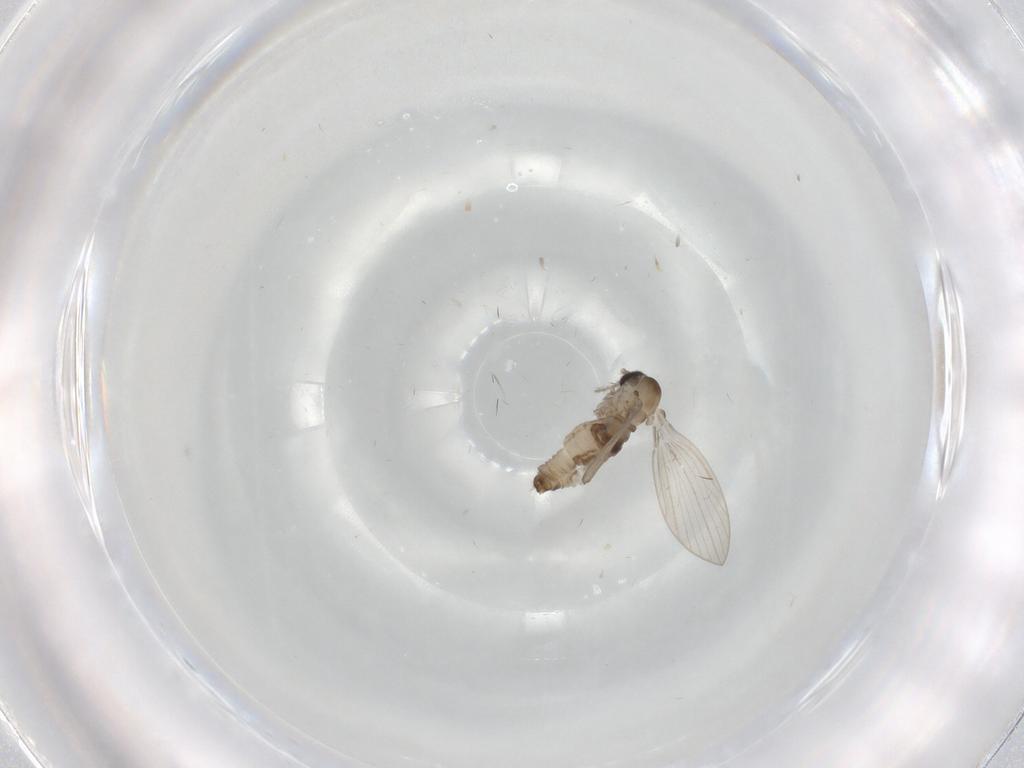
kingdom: Animalia
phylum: Arthropoda
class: Insecta
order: Diptera
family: Psychodidae
